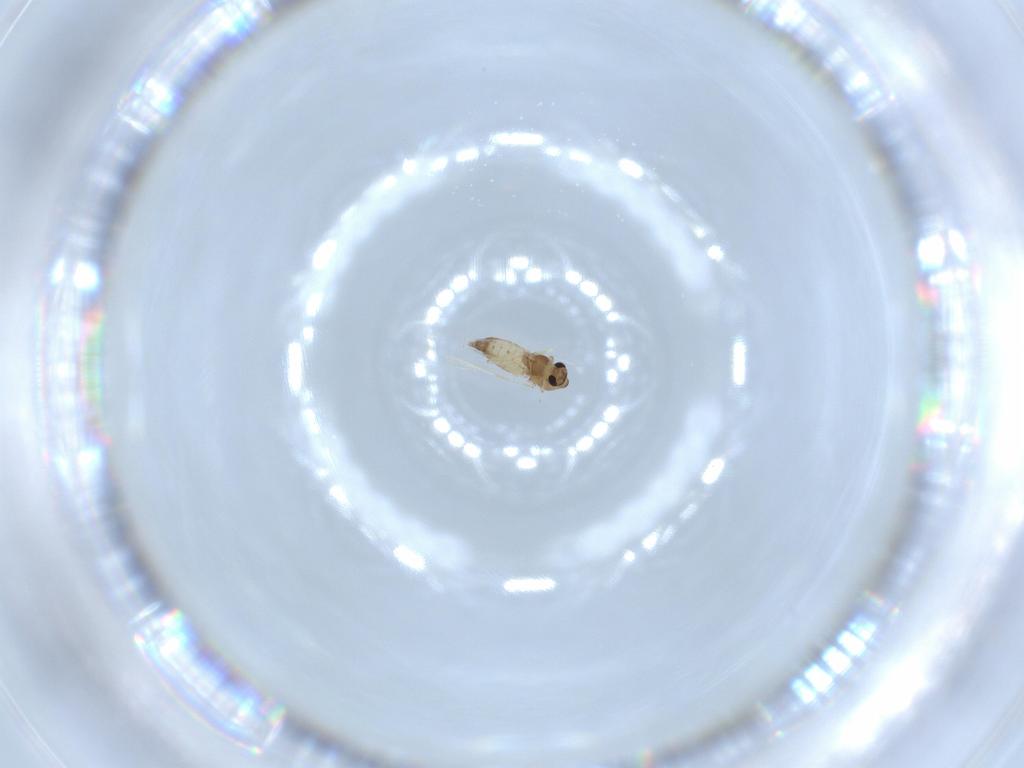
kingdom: Animalia
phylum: Arthropoda
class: Insecta
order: Diptera
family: Chironomidae
